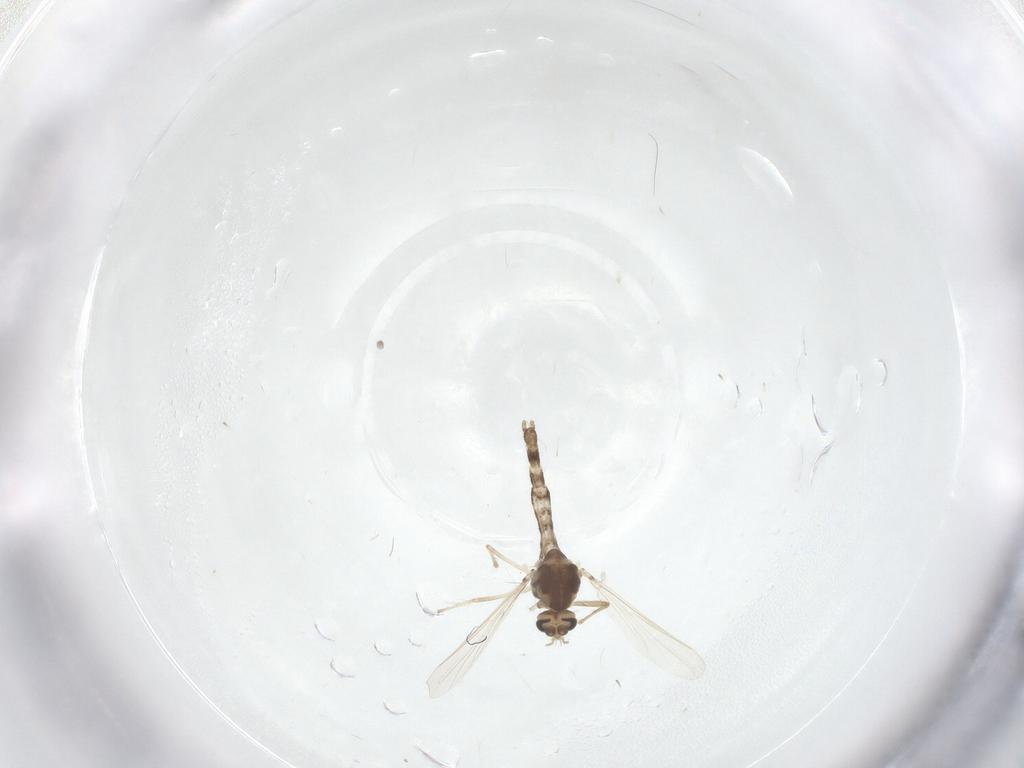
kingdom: Animalia
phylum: Arthropoda
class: Insecta
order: Diptera
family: Chironomidae
